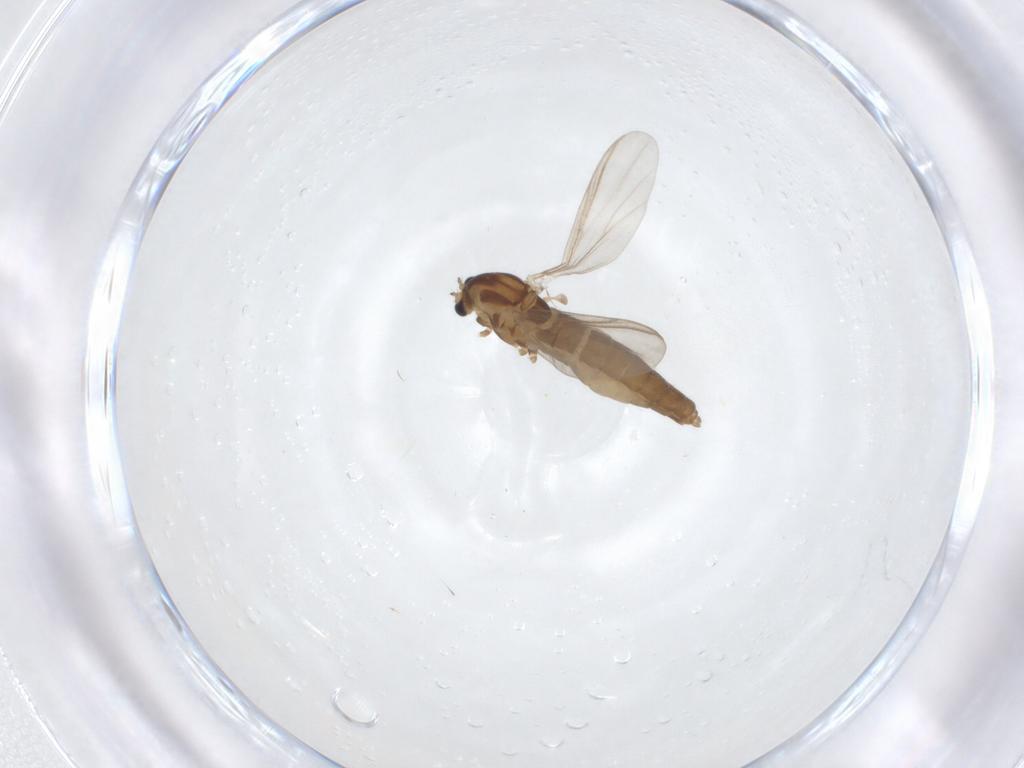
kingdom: Animalia
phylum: Arthropoda
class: Insecta
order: Diptera
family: Chironomidae
